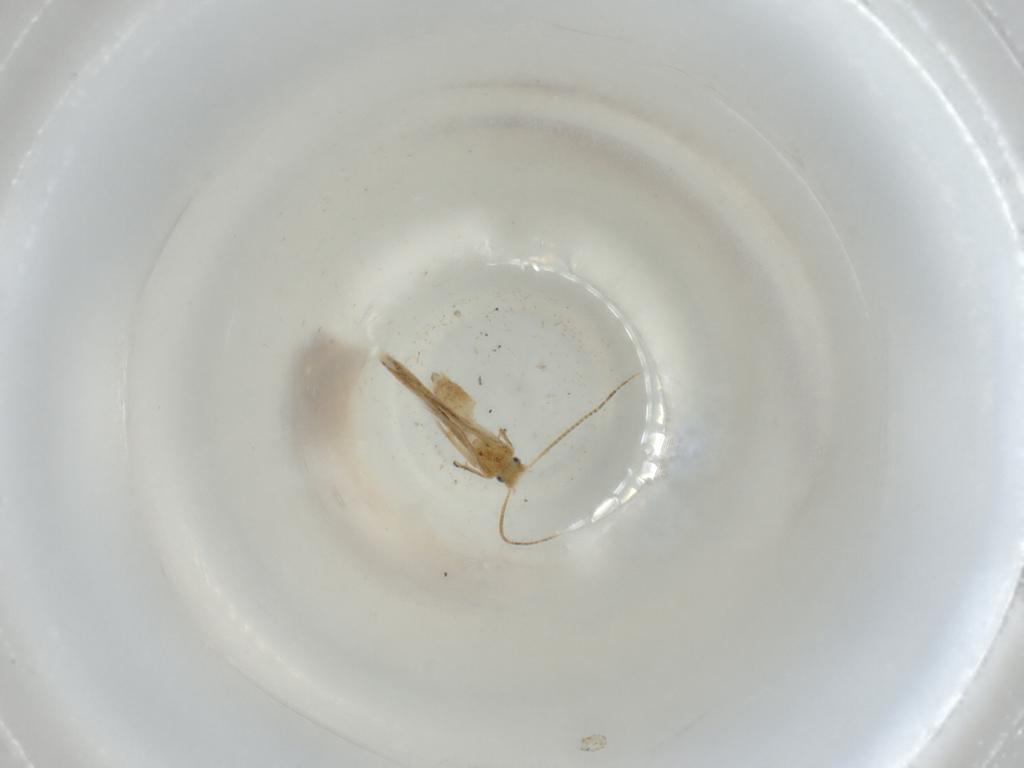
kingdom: Animalia
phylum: Arthropoda
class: Insecta
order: Lepidoptera
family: Bucculatricidae
